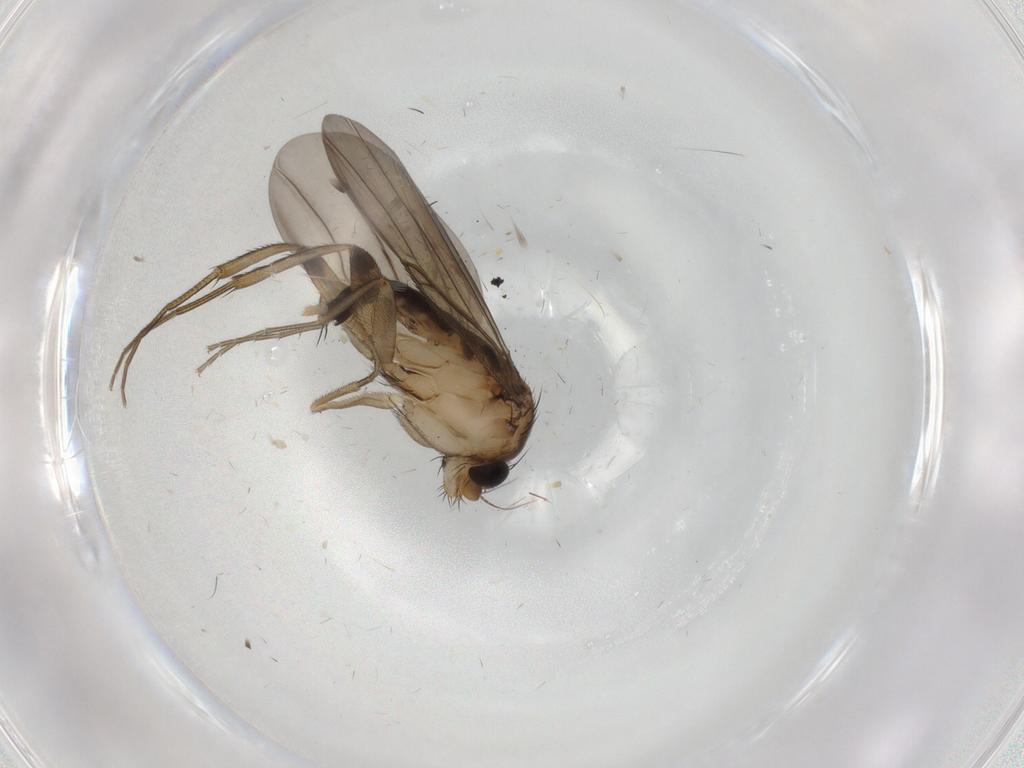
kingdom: Animalia
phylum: Arthropoda
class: Insecta
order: Diptera
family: Phoridae
